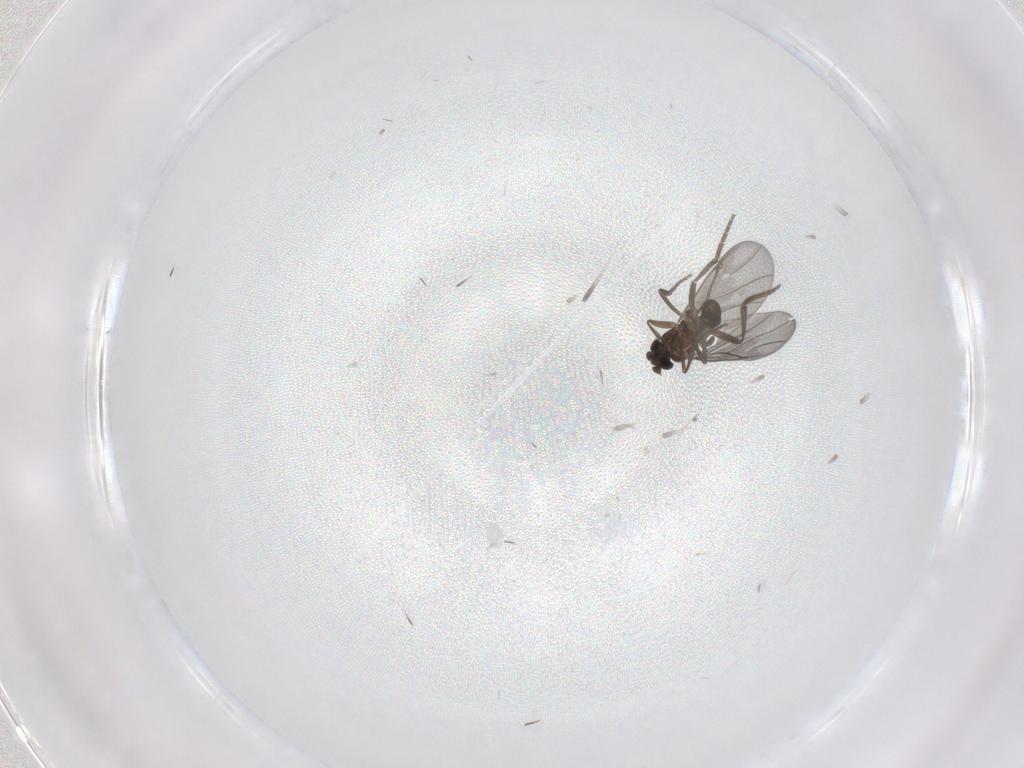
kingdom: Animalia
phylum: Arthropoda
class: Insecta
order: Diptera
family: Phoridae
